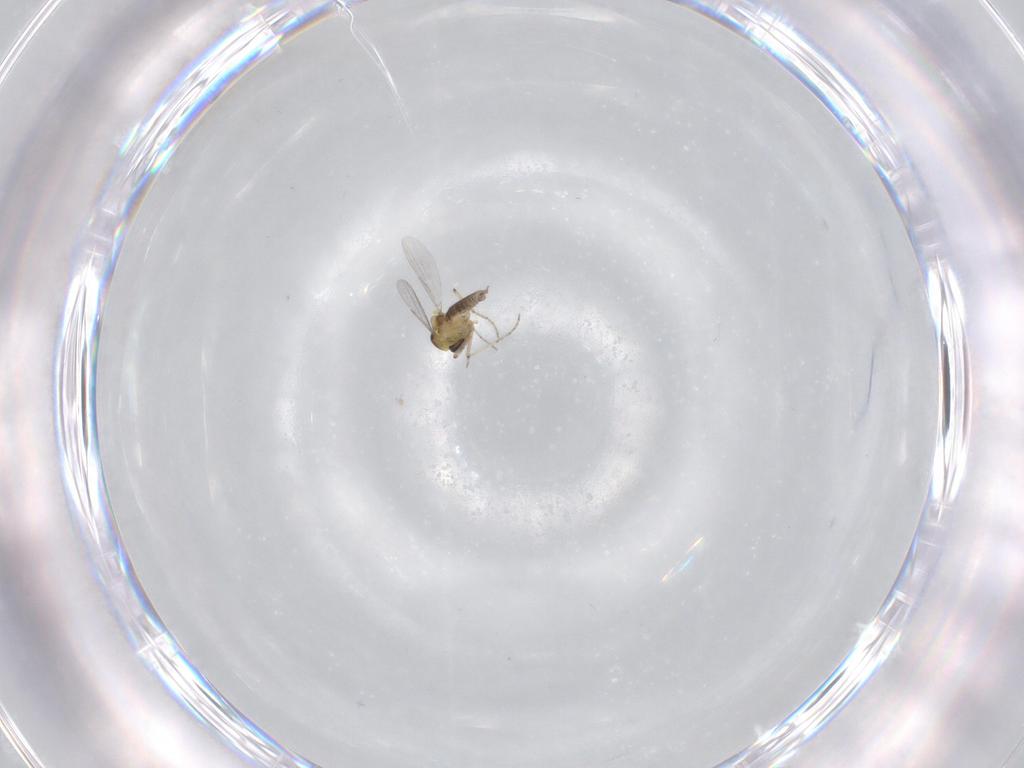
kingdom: Animalia
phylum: Arthropoda
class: Insecta
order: Diptera
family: Ceratopogonidae
